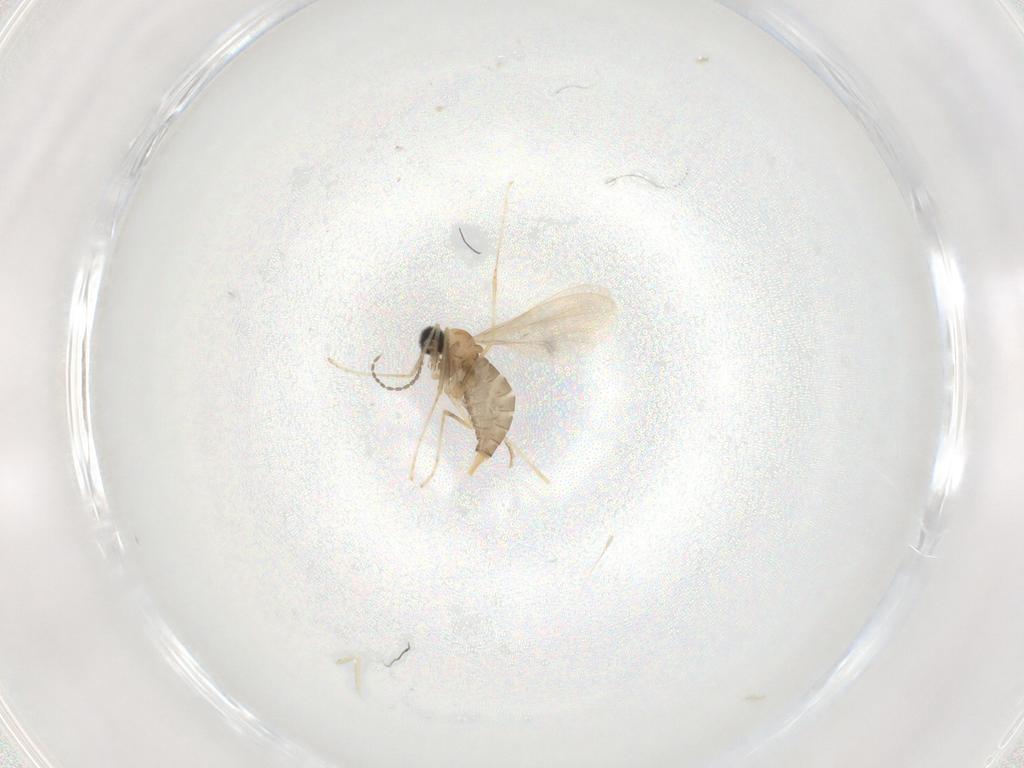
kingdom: Animalia
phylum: Arthropoda
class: Insecta
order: Diptera
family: Cecidomyiidae
